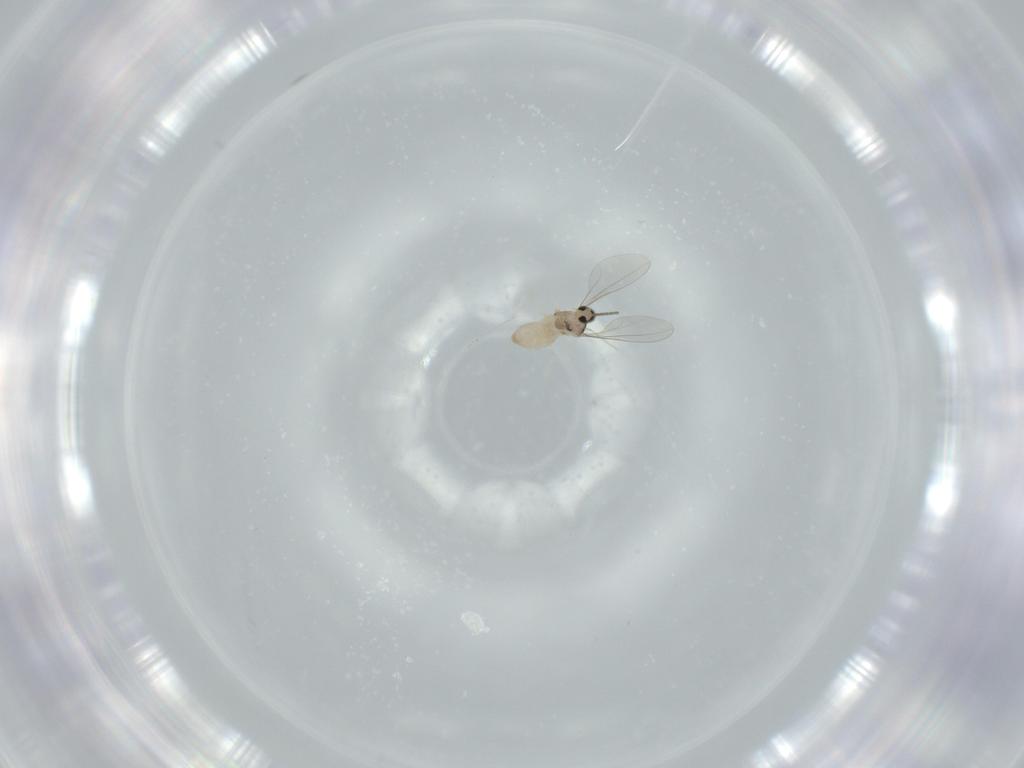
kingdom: Animalia
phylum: Arthropoda
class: Insecta
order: Diptera
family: Cecidomyiidae
